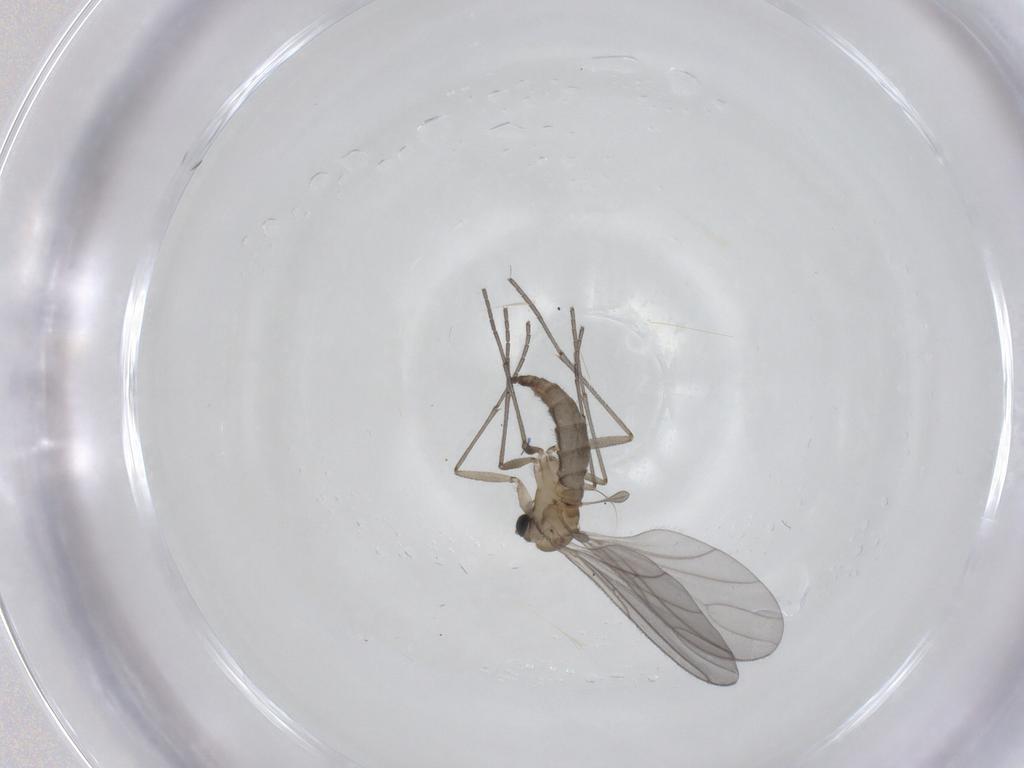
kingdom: Animalia
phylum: Arthropoda
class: Insecta
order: Diptera
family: Sciaridae
